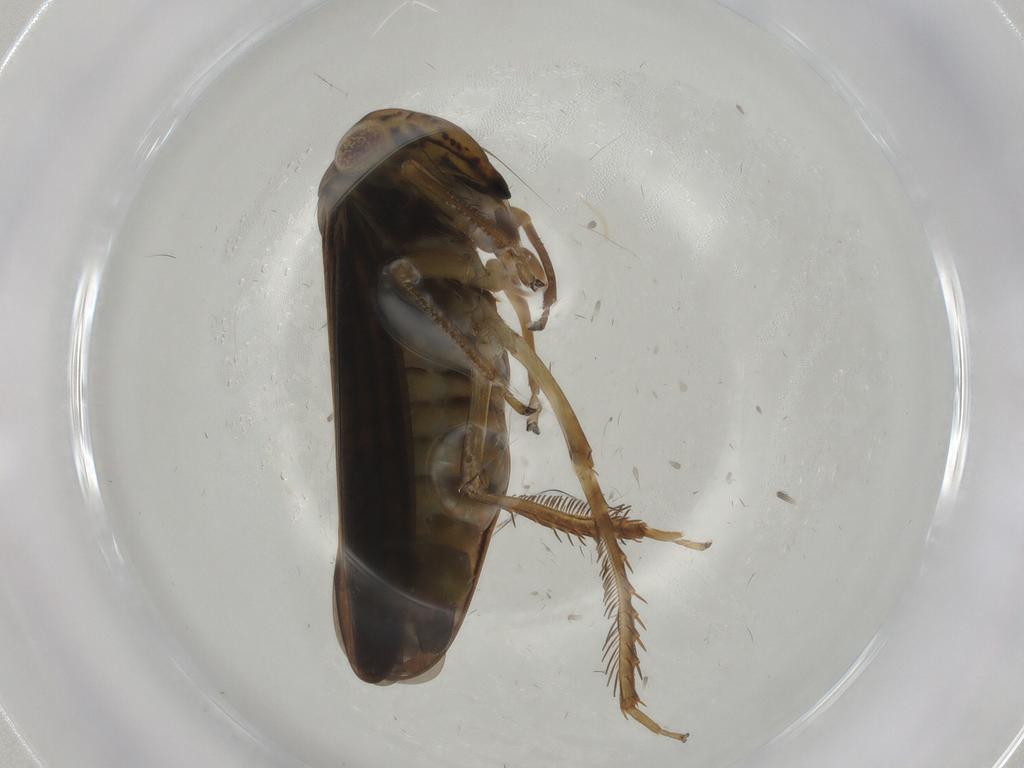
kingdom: Animalia
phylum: Arthropoda
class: Insecta
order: Hemiptera
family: Cicadellidae
